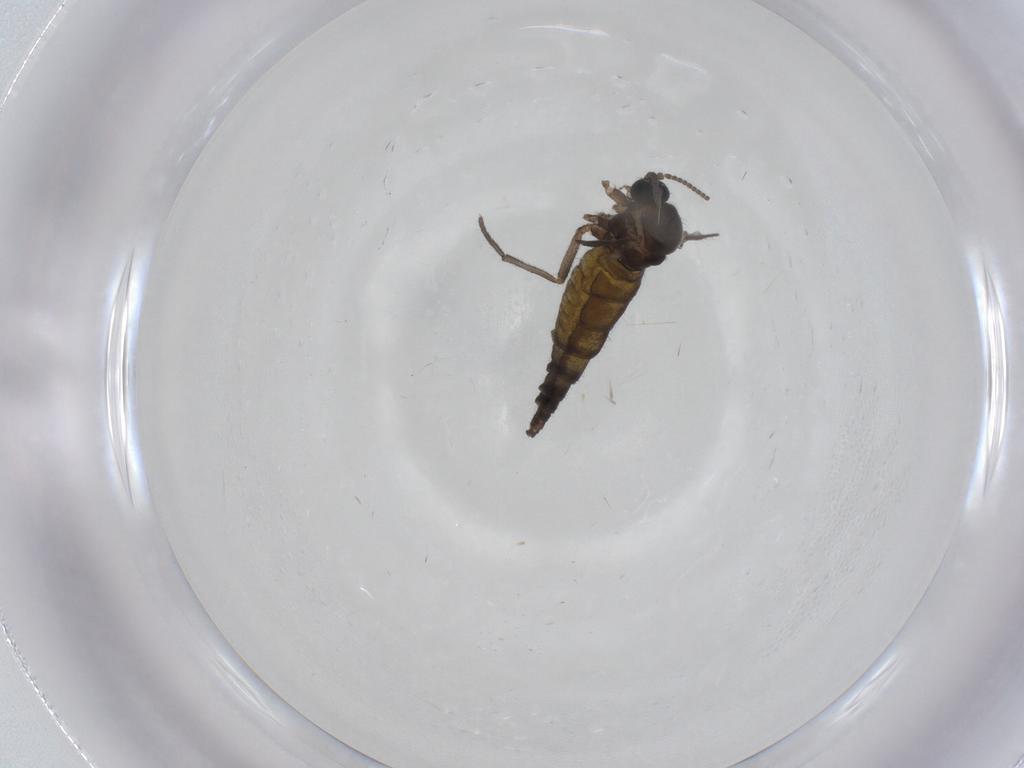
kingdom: Animalia
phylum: Arthropoda
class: Insecta
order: Diptera
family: Sciaridae
